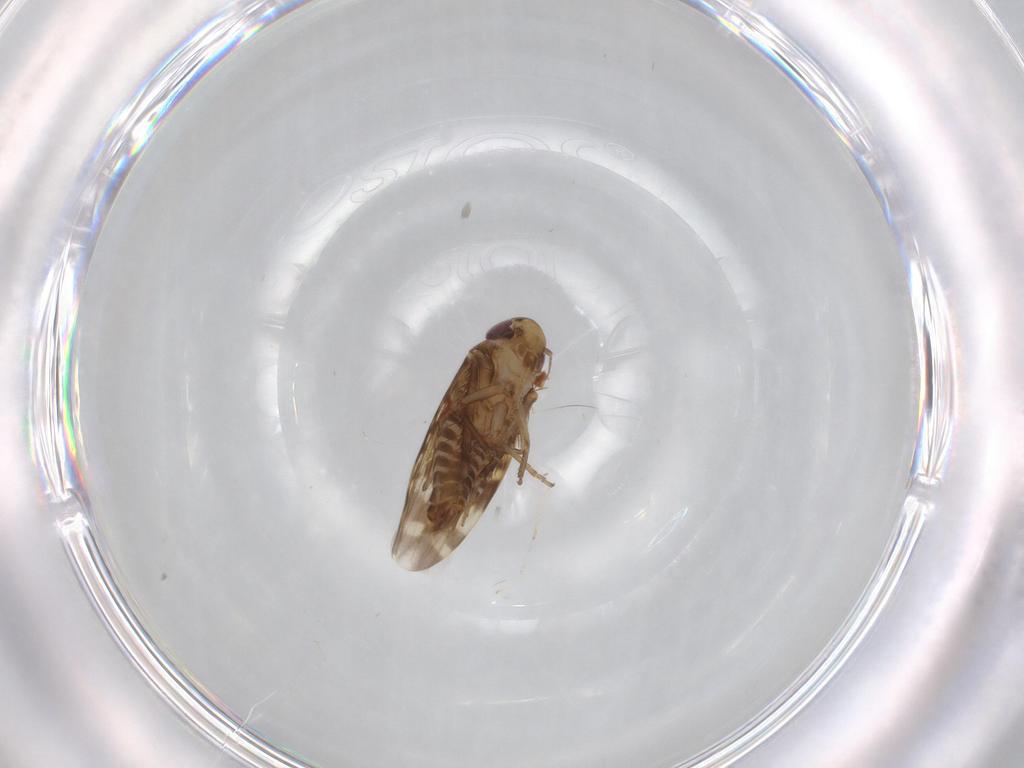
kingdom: Animalia
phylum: Arthropoda
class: Insecta
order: Hemiptera
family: Cicadellidae
